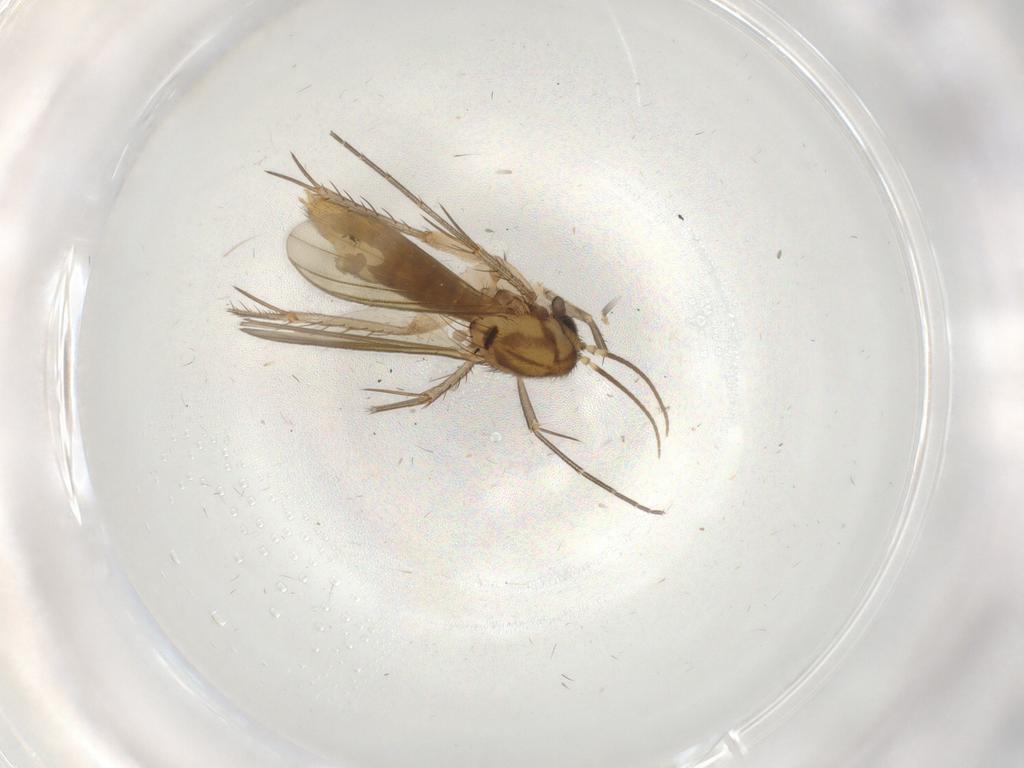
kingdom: Animalia
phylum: Arthropoda
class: Insecta
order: Diptera
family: Mycetophilidae
